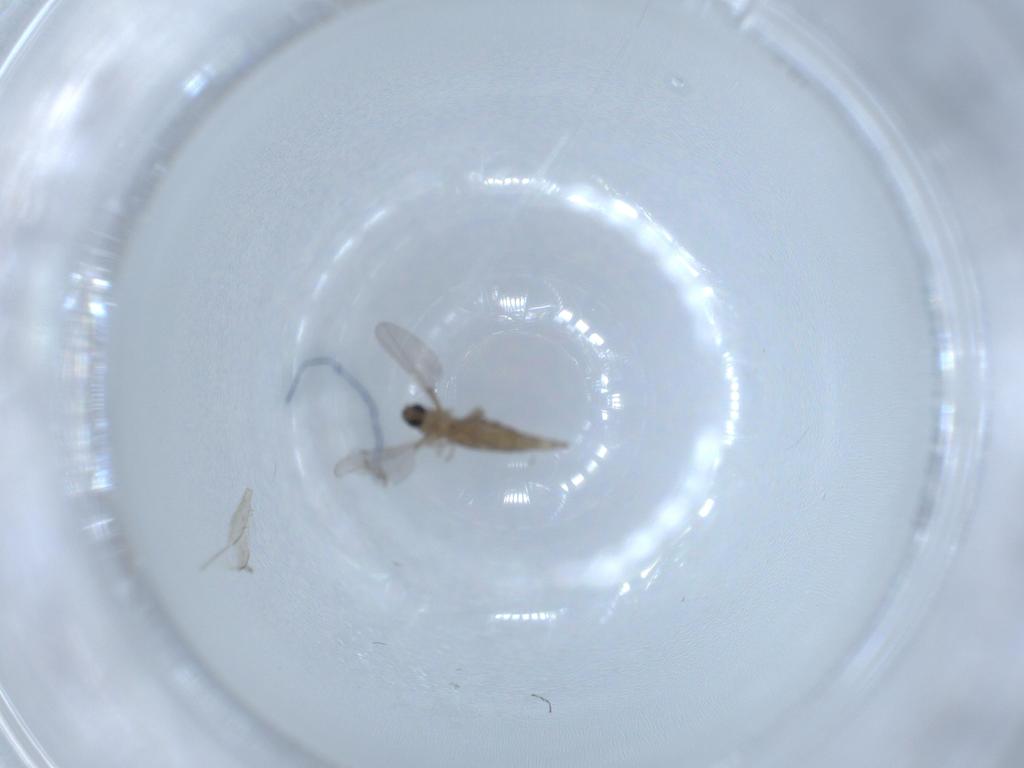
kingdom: Animalia
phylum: Arthropoda
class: Insecta
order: Diptera
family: Cecidomyiidae
